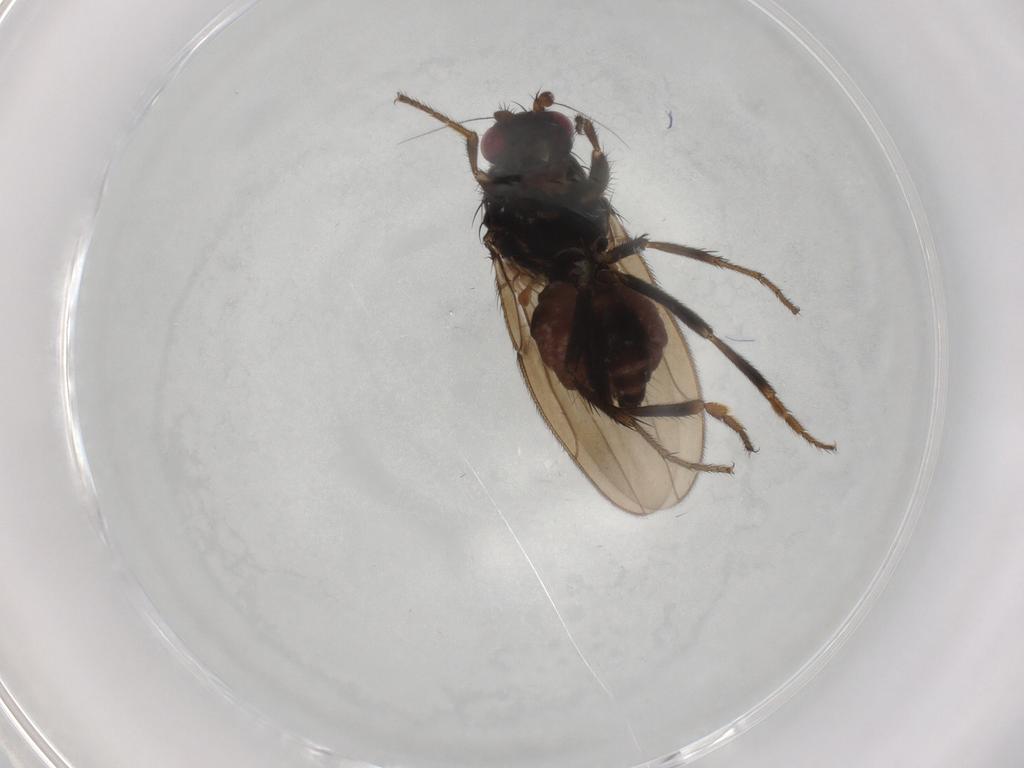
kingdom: Animalia
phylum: Arthropoda
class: Insecta
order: Diptera
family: Sphaeroceridae
